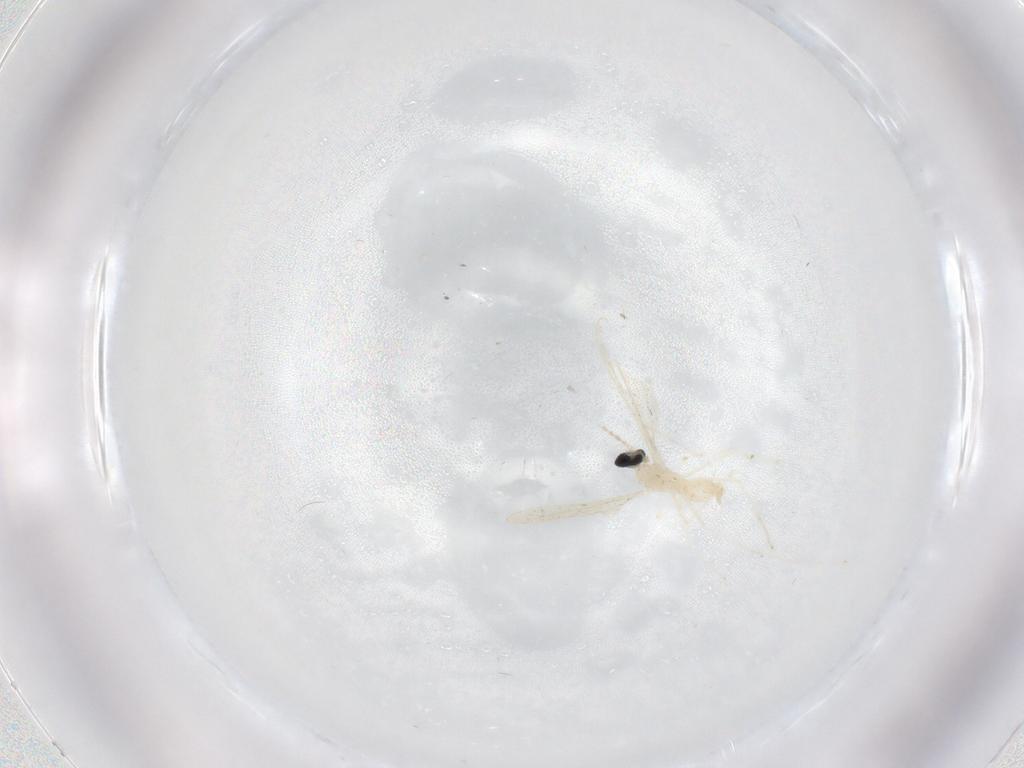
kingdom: Animalia
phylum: Arthropoda
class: Insecta
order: Diptera
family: Cecidomyiidae
